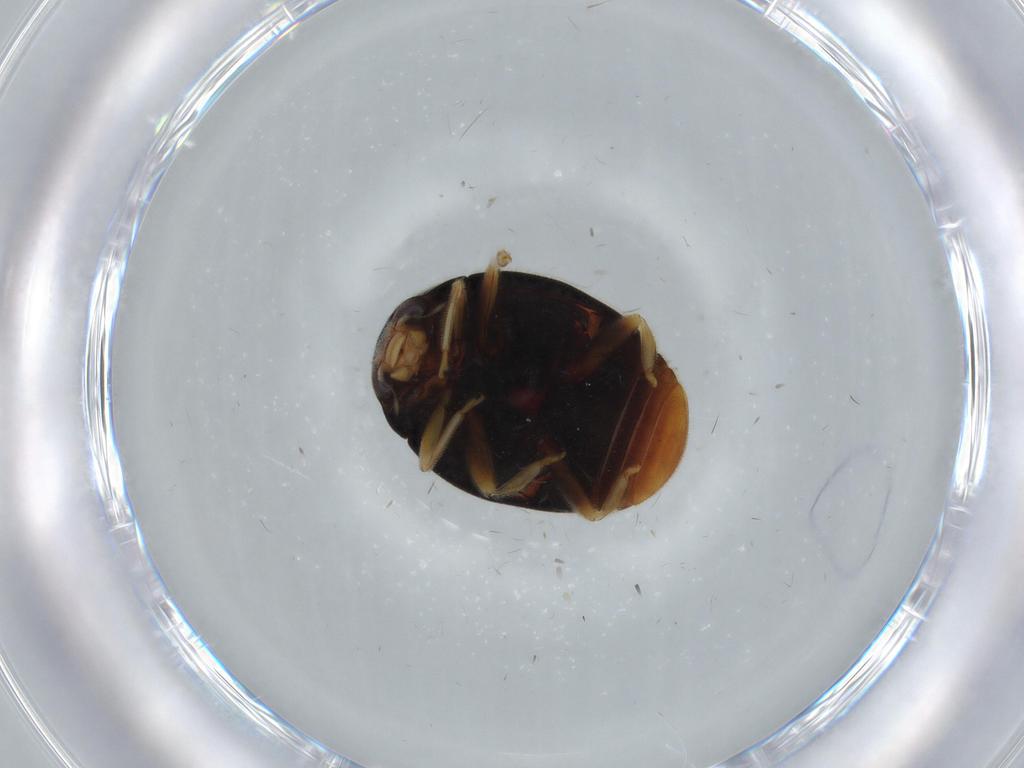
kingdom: Animalia
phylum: Arthropoda
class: Insecta
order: Coleoptera
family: Coccinellidae
